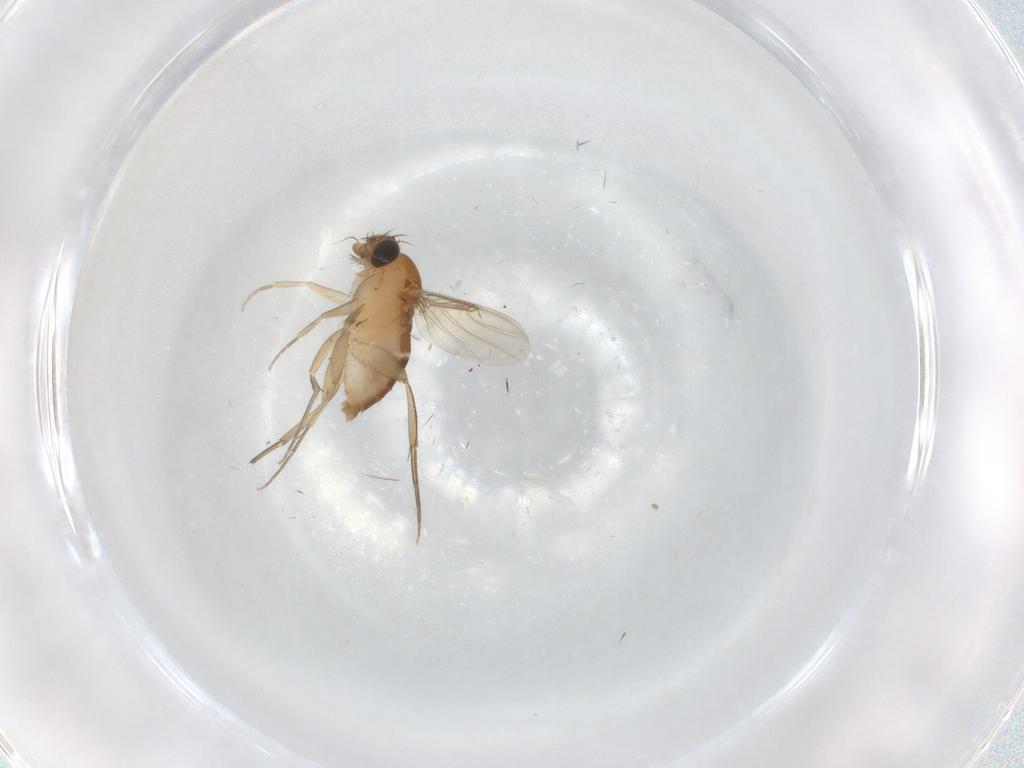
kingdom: Animalia
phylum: Arthropoda
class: Insecta
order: Diptera
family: Phoridae
